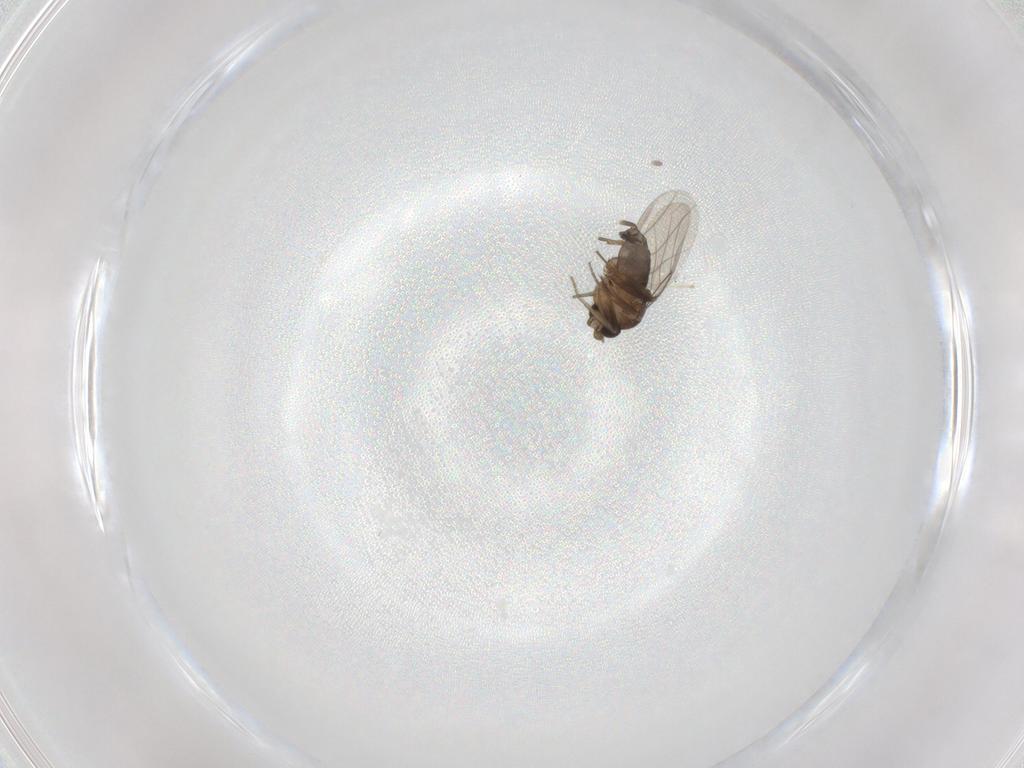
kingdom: Animalia
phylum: Arthropoda
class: Insecta
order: Diptera
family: Phoridae
